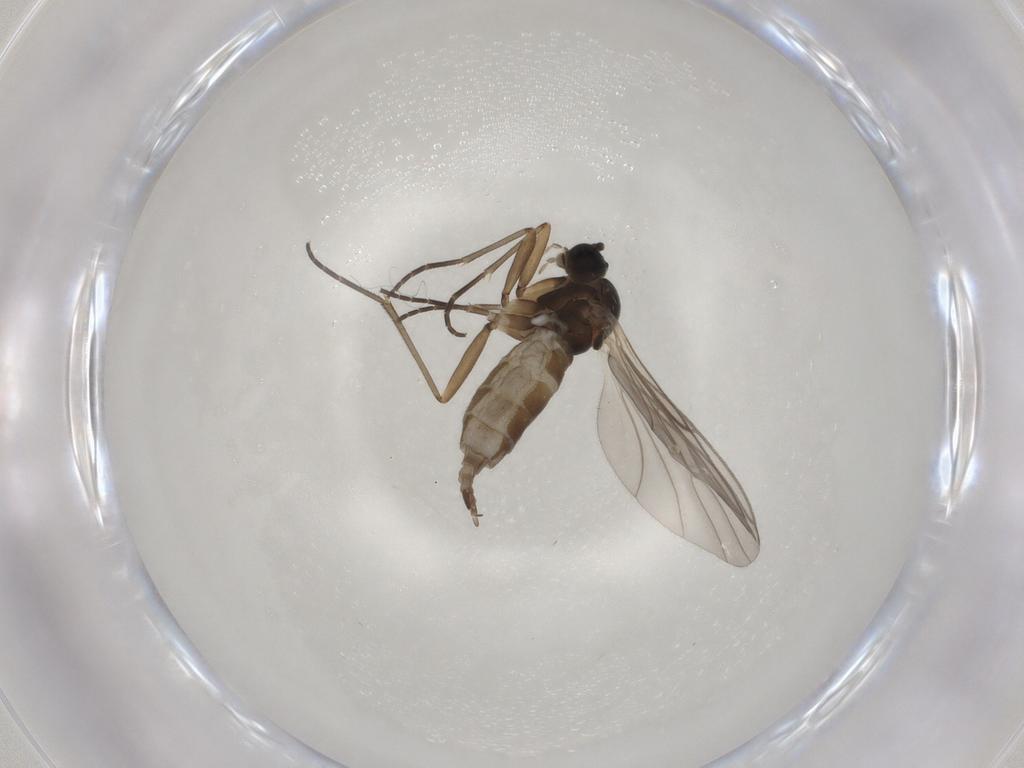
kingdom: Animalia
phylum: Arthropoda
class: Insecta
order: Diptera
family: Sciaridae
